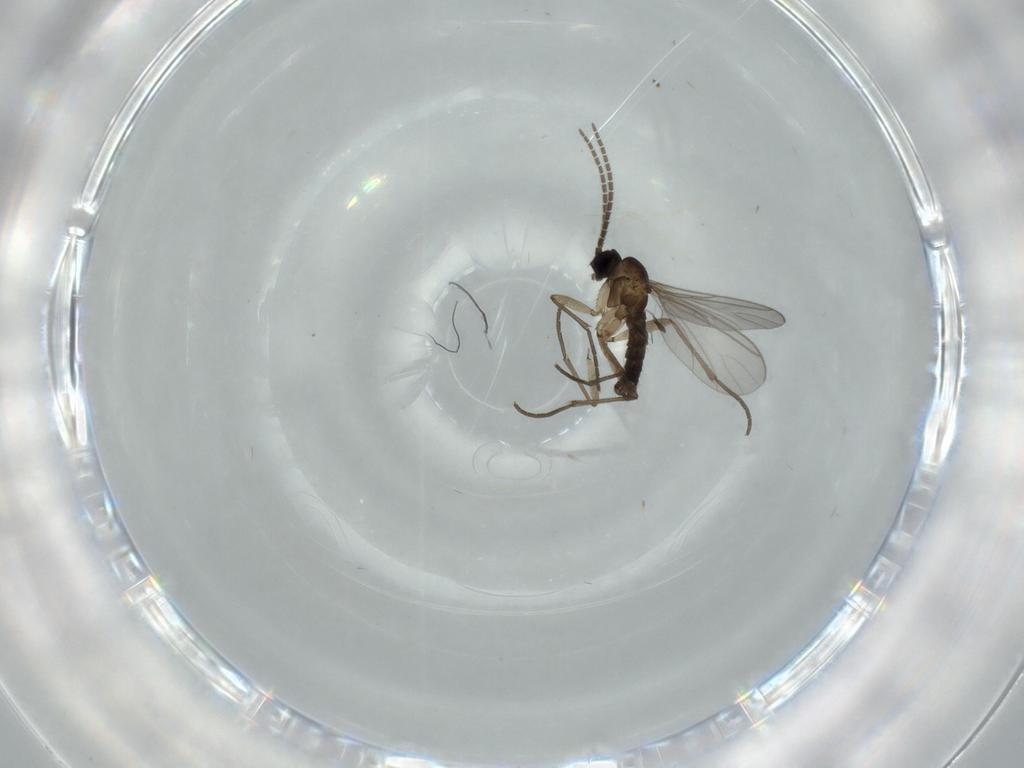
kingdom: Animalia
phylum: Arthropoda
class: Insecta
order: Diptera
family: Sciaridae
